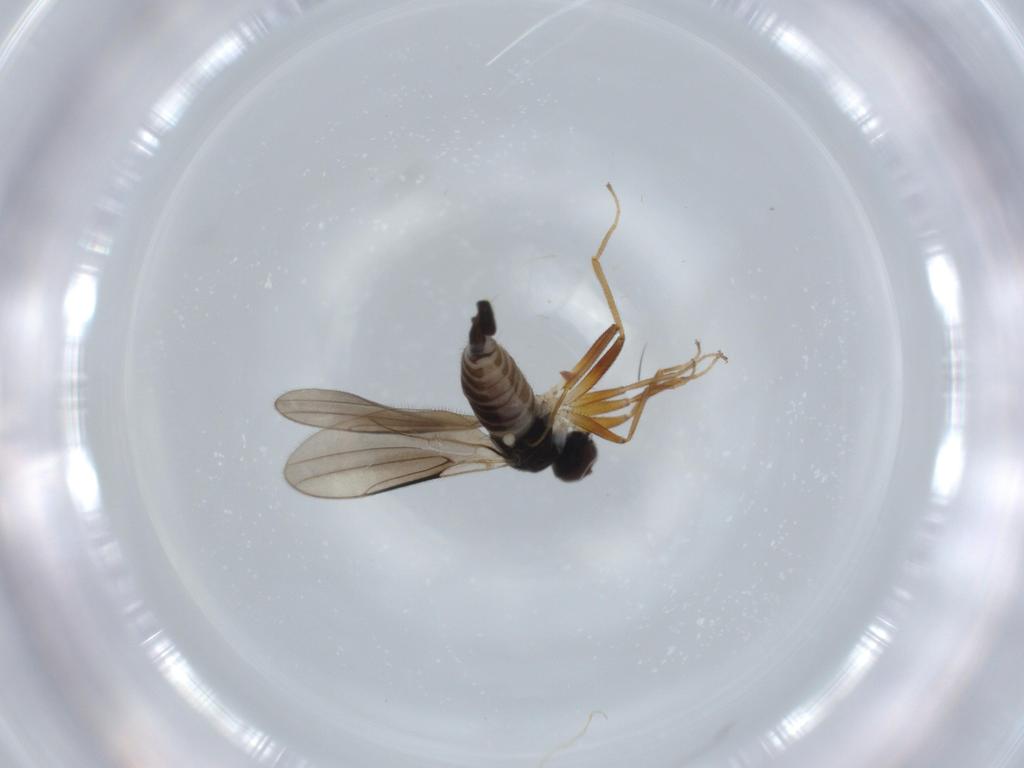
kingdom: Animalia
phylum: Arthropoda
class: Insecta
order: Diptera
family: Hybotidae
